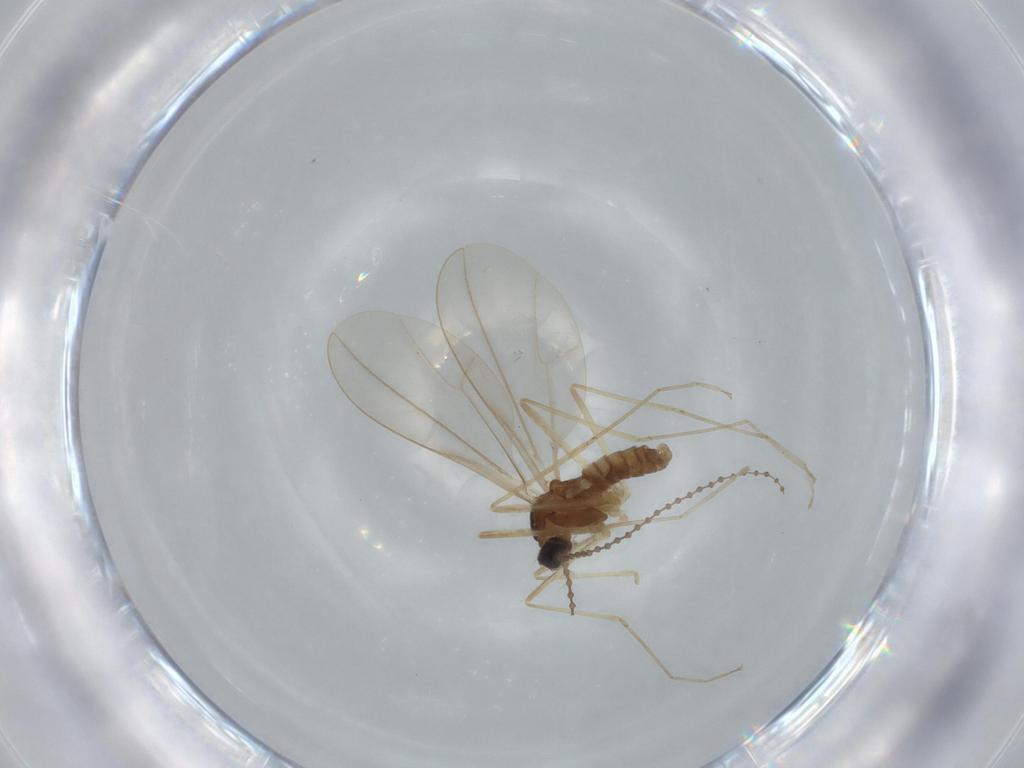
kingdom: Animalia
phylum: Arthropoda
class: Insecta
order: Diptera
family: Cecidomyiidae
